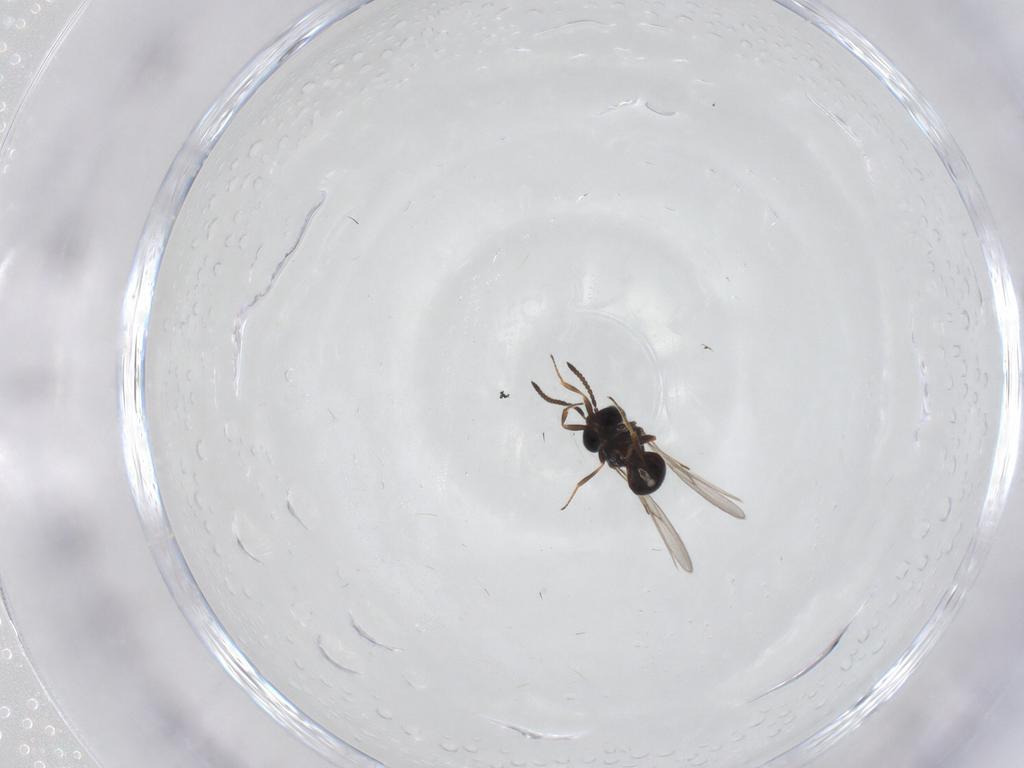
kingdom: Animalia
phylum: Arthropoda
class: Insecta
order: Hymenoptera
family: Scelionidae
